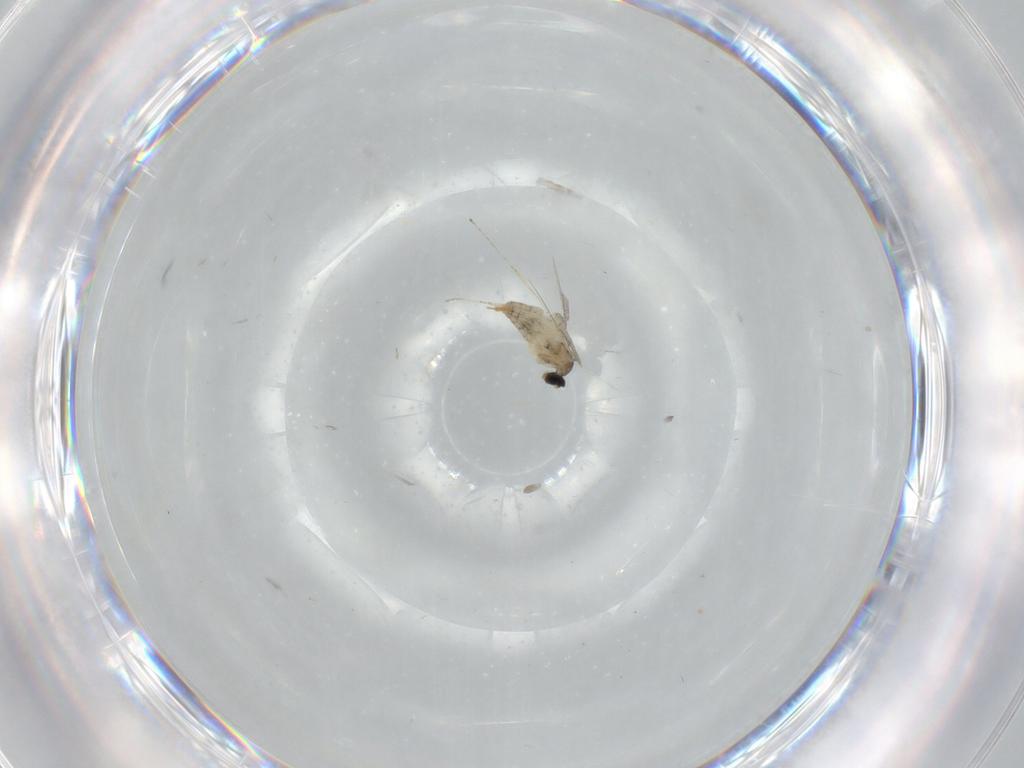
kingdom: Animalia
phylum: Arthropoda
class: Insecta
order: Diptera
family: Cecidomyiidae
